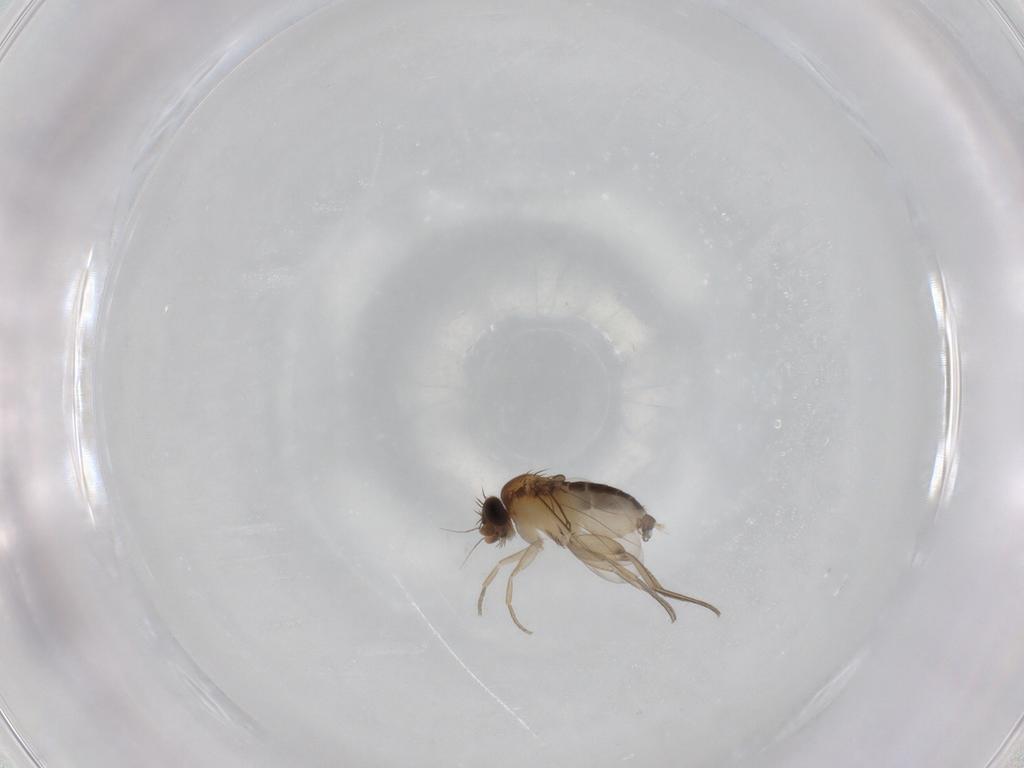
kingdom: Animalia
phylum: Arthropoda
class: Insecta
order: Diptera
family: Phoridae
